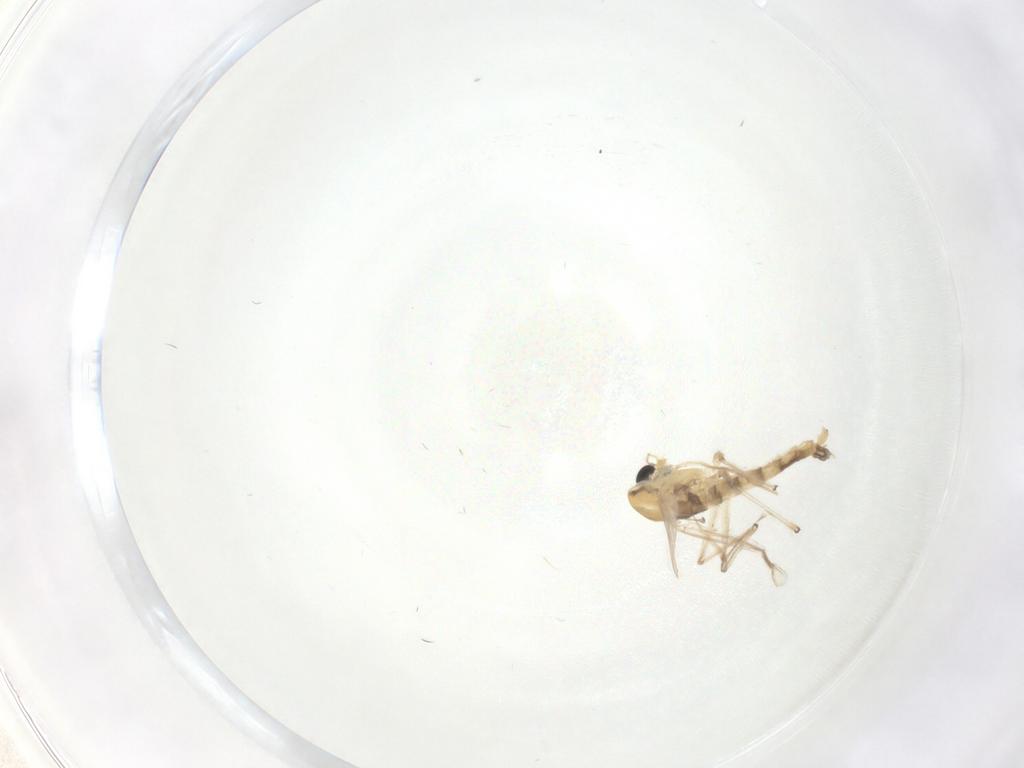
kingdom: Animalia
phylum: Arthropoda
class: Insecta
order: Diptera
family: Chironomidae
